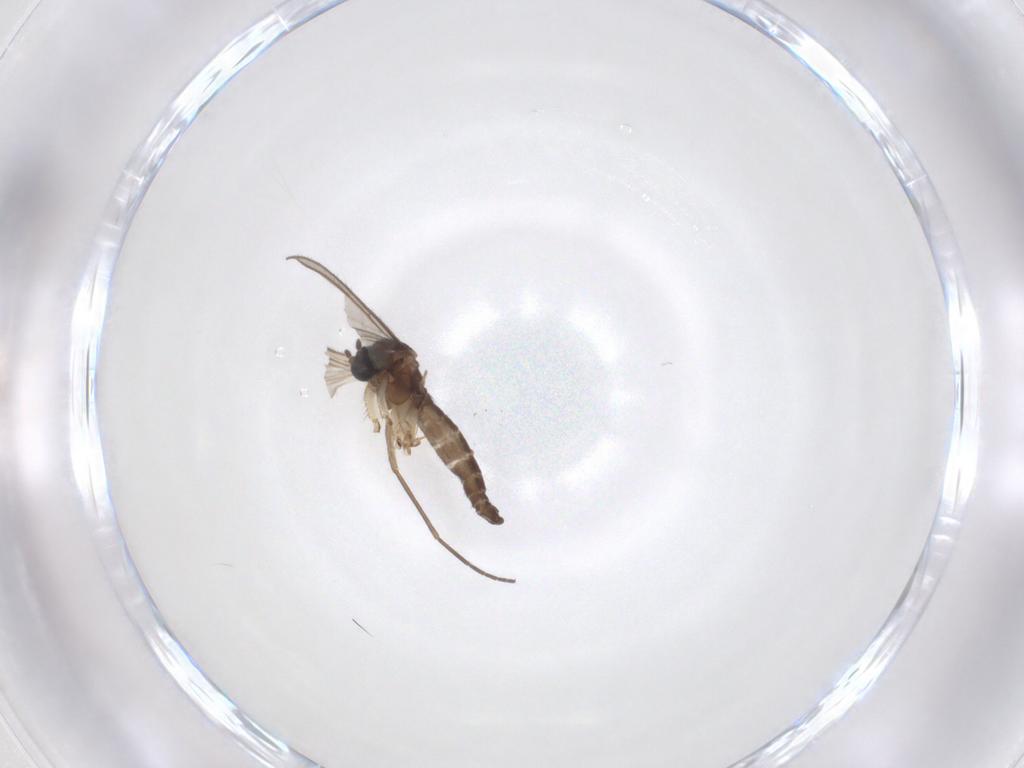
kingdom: Animalia
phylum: Arthropoda
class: Insecta
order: Diptera
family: Sciaridae
